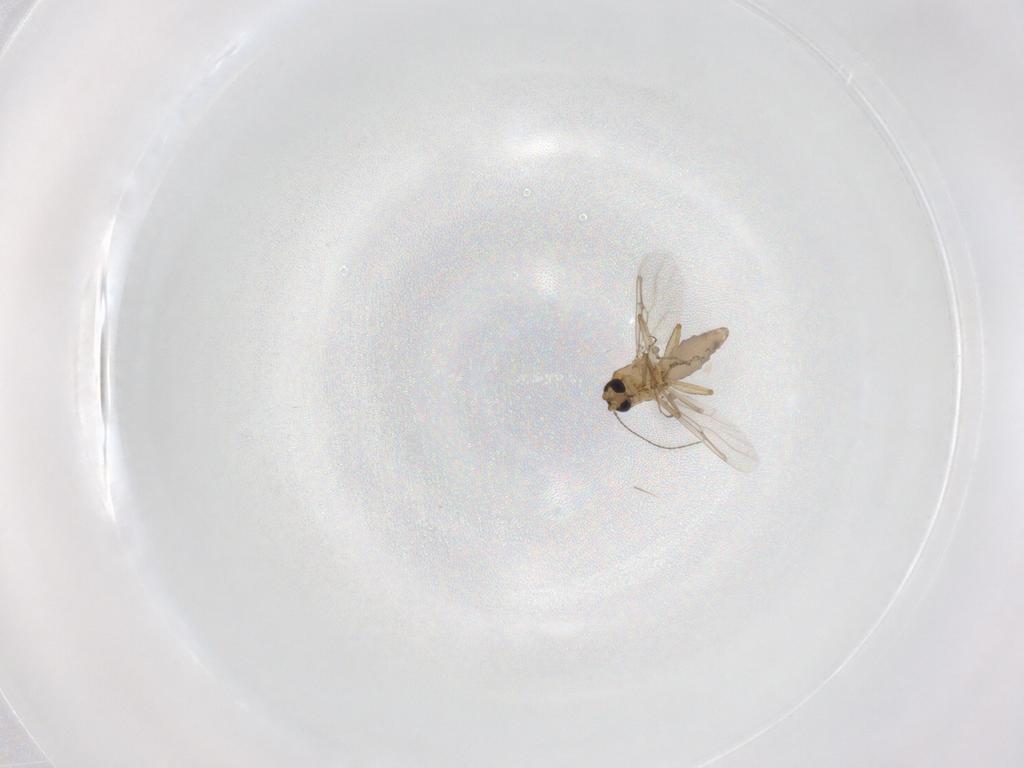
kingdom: Animalia
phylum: Arthropoda
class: Insecta
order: Diptera
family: Ceratopogonidae
